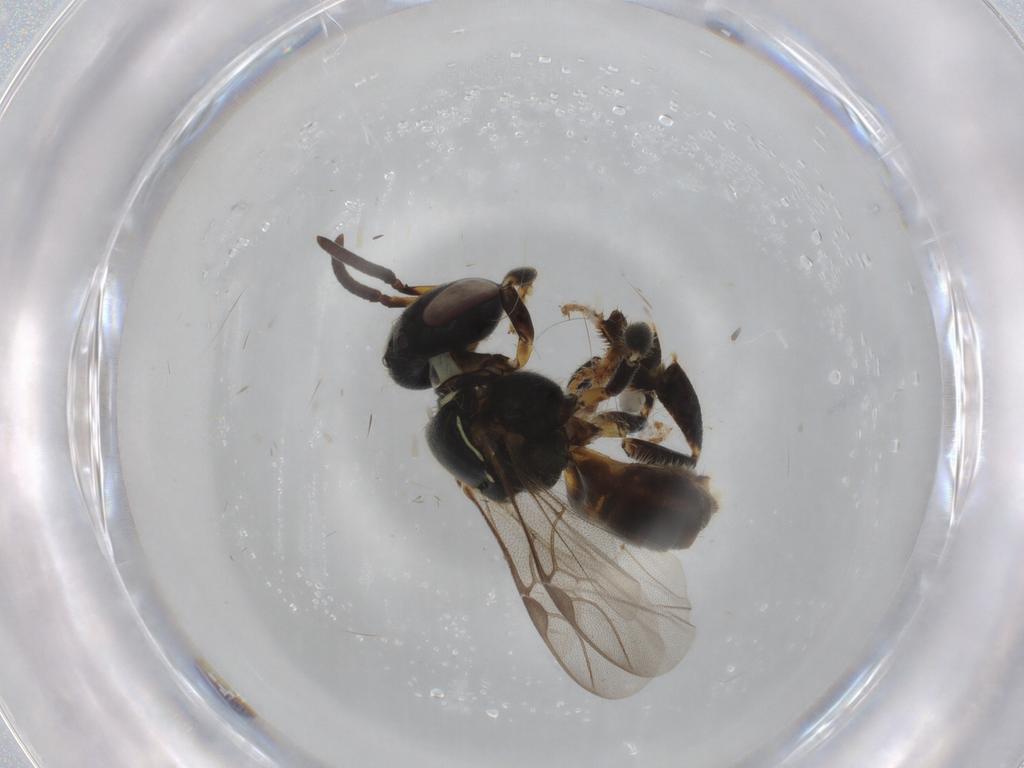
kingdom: Animalia
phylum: Arthropoda
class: Insecta
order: Hymenoptera
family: Apidae
